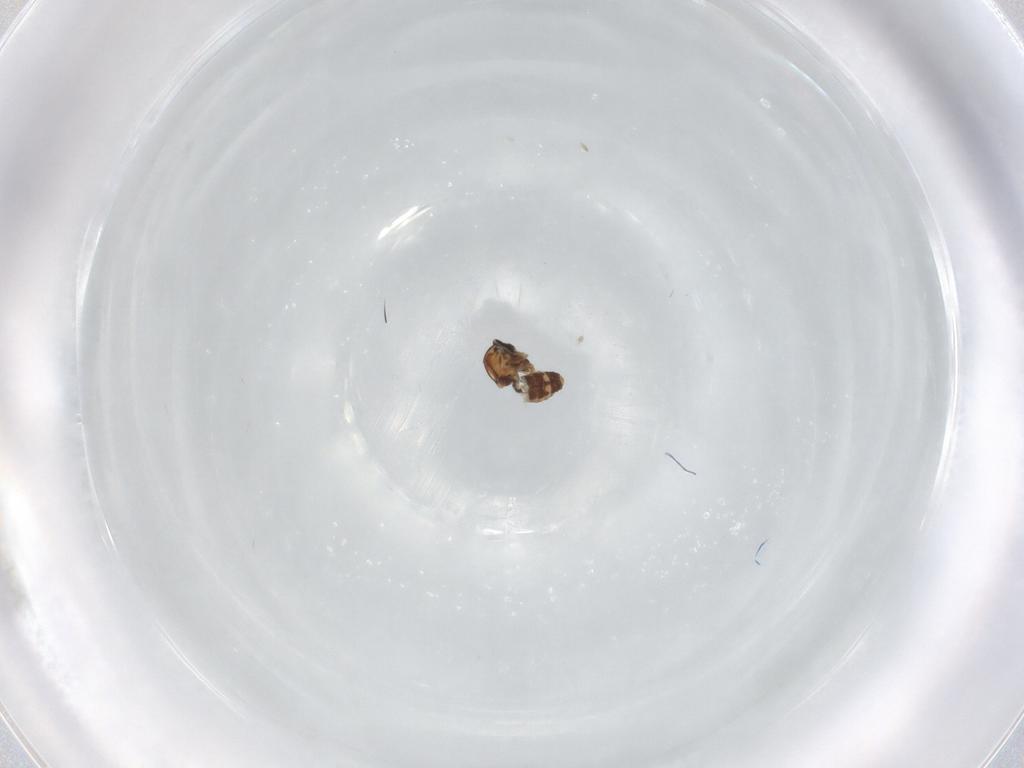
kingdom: Animalia
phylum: Arthropoda
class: Insecta
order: Diptera
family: Ceratopogonidae
